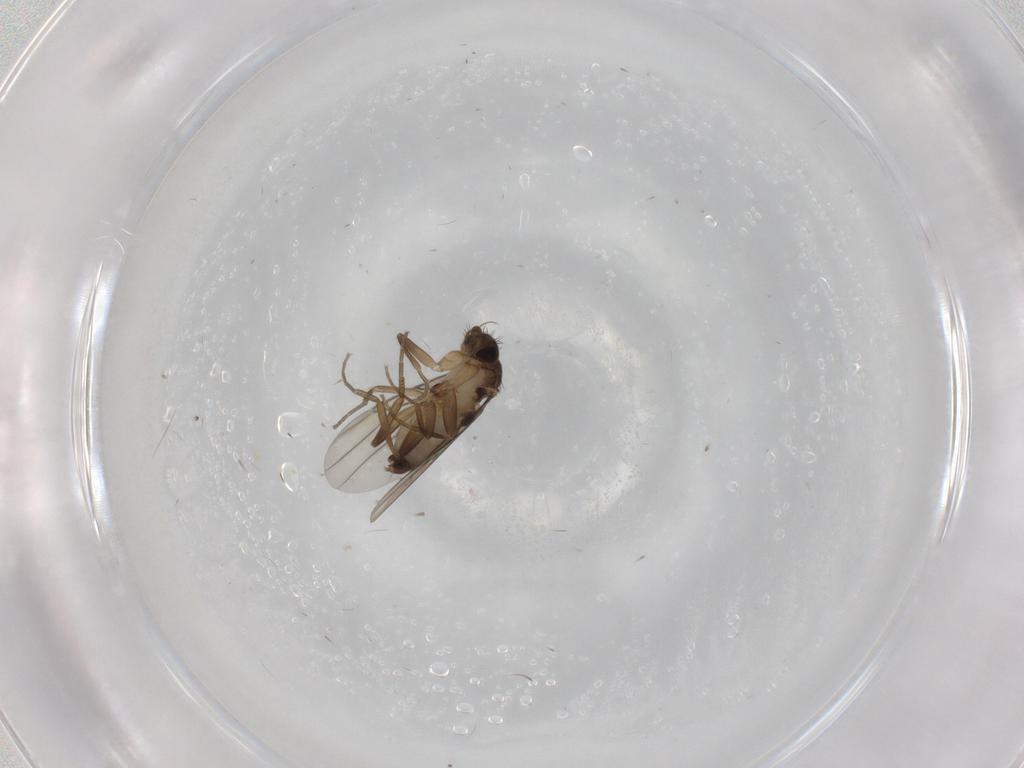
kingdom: Animalia
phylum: Arthropoda
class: Insecta
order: Diptera
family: Phoridae
